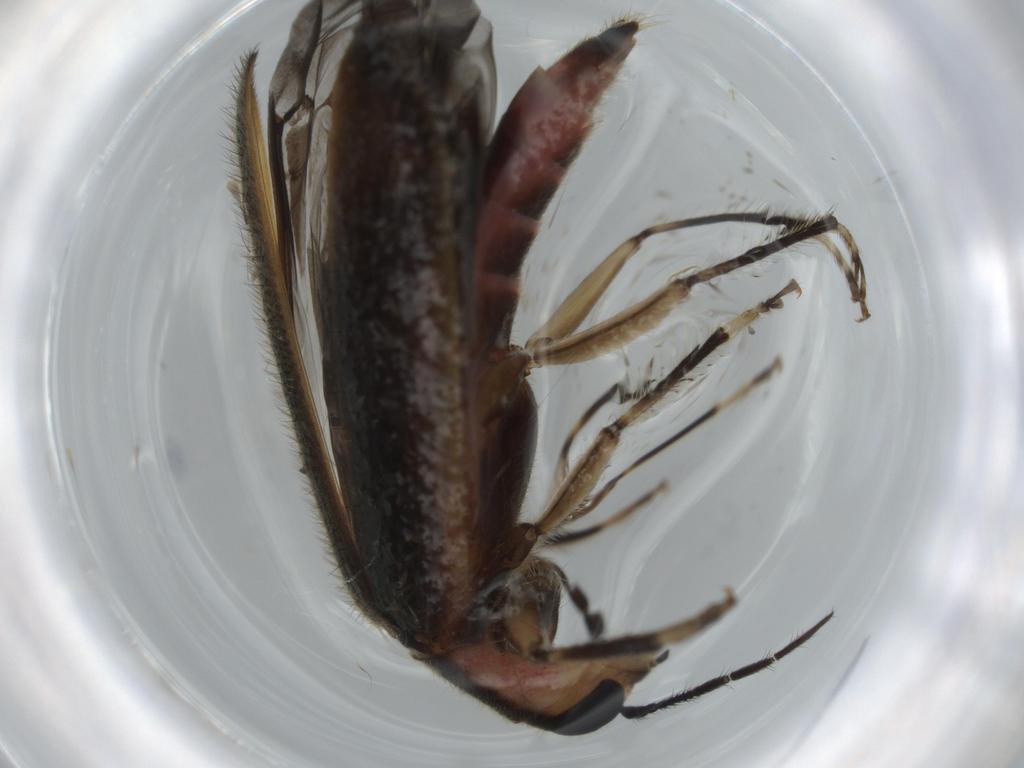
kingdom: Animalia
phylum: Arthropoda
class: Insecta
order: Coleoptera
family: Cleridae
